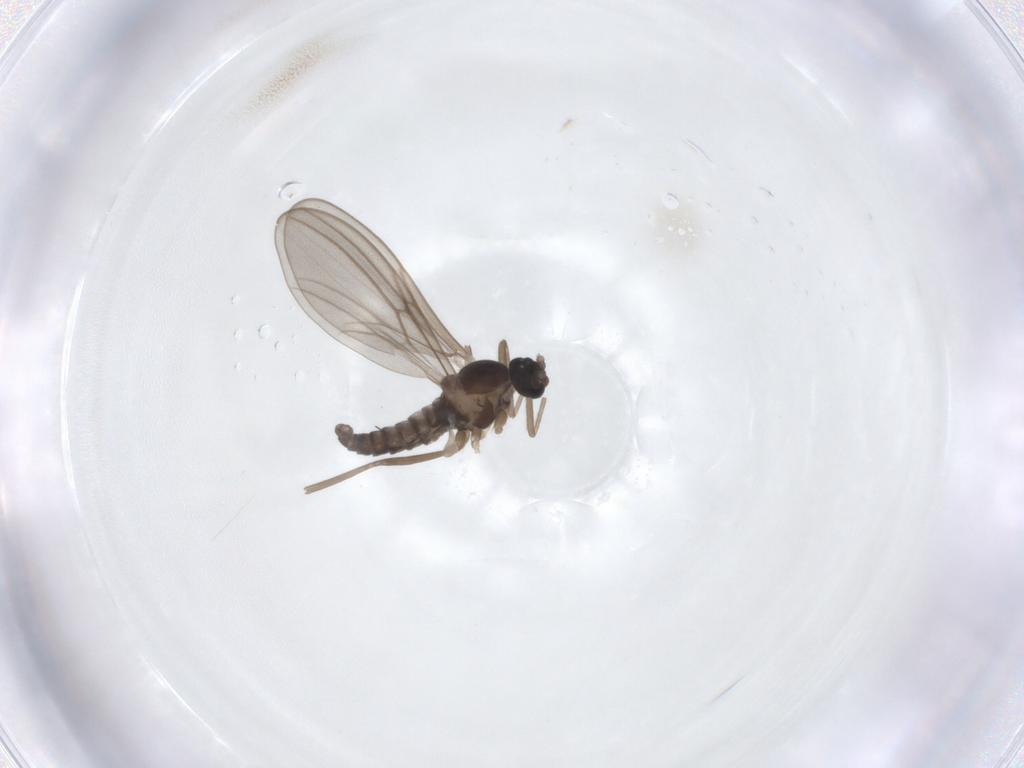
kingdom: Animalia
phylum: Arthropoda
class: Insecta
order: Diptera
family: Cecidomyiidae
